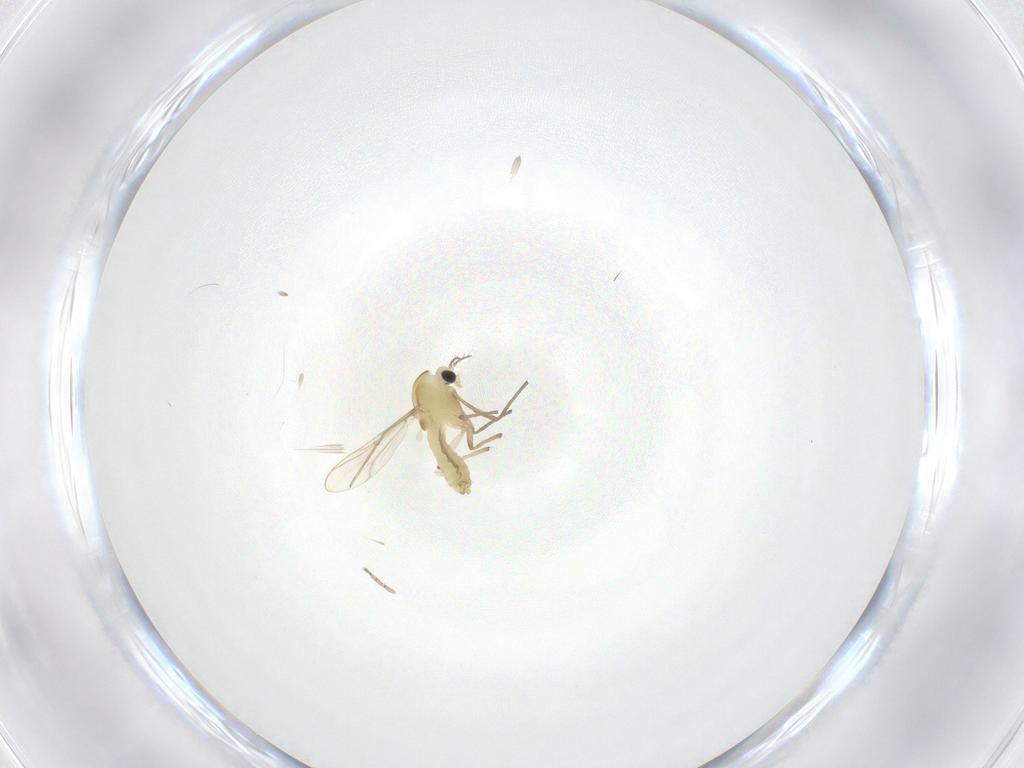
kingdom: Animalia
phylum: Arthropoda
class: Insecta
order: Diptera
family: Chironomidae
